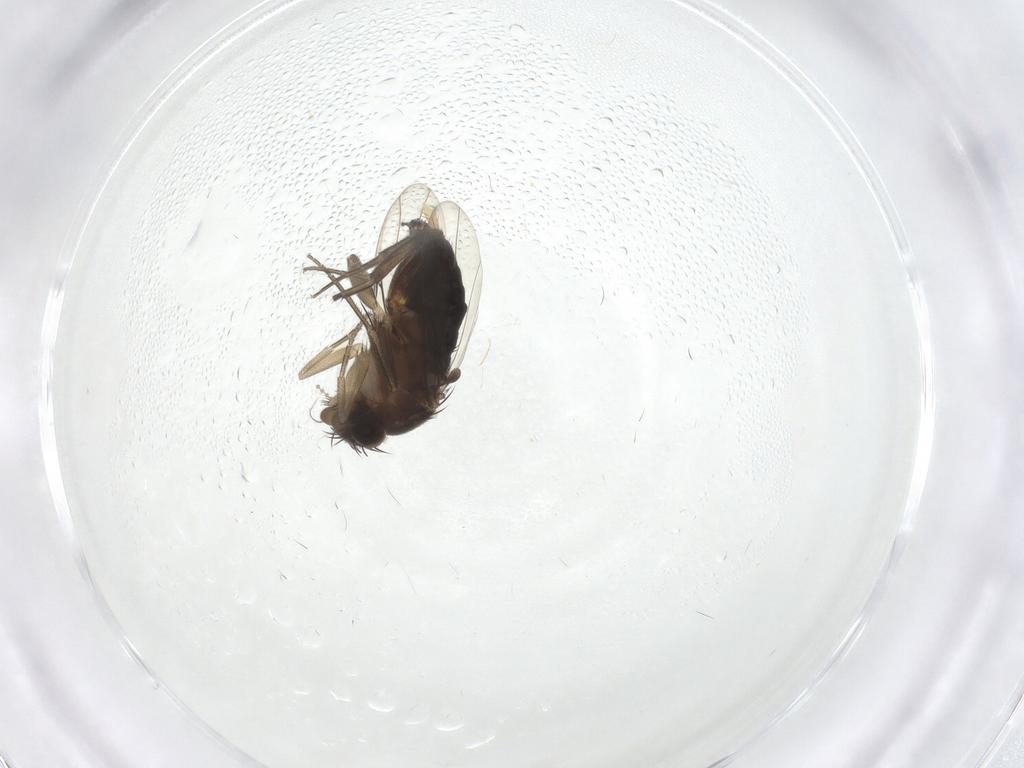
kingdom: Animalia
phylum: Arthropoda
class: Insecta
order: Diptera
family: Phoridae
